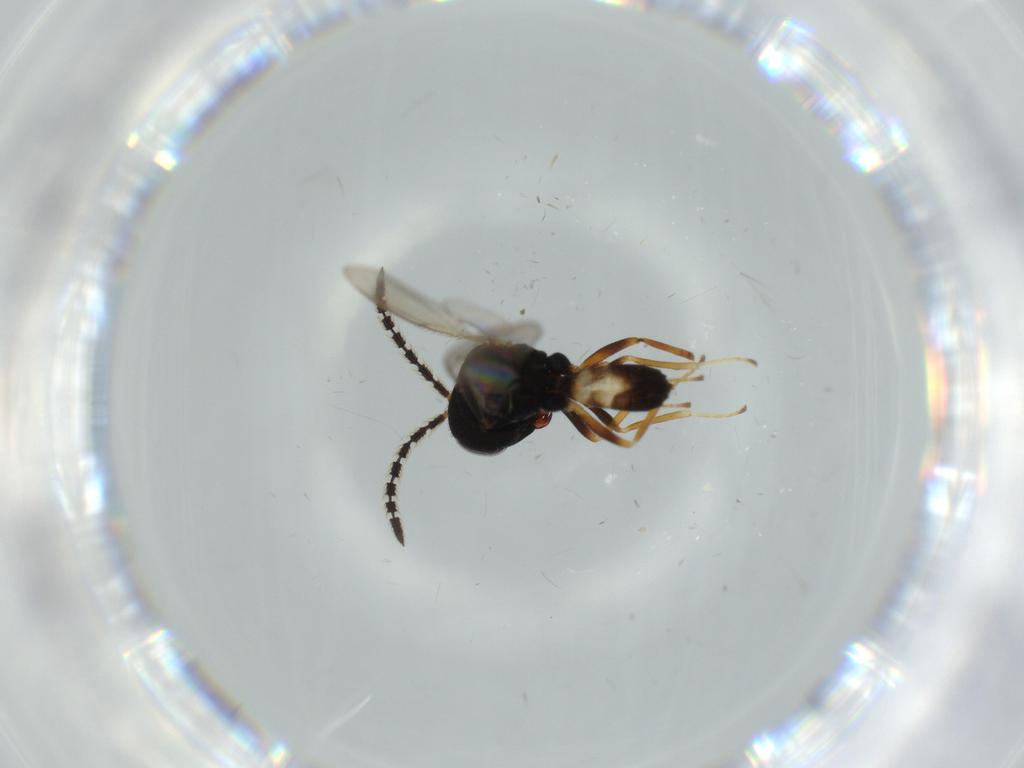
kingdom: Animalia
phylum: Arthropoda
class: Insecta
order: Hymenoptera
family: Pteromalidae
